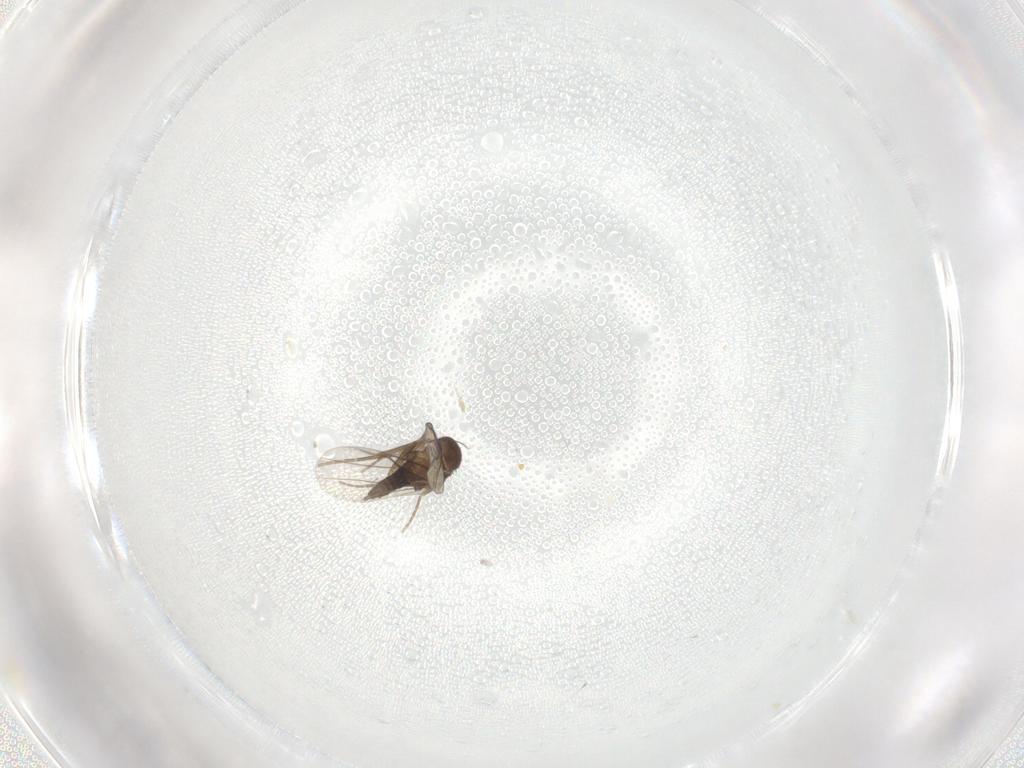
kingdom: Animalia
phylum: Arthropoda
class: Insecta
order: Diptera
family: Phoridae
